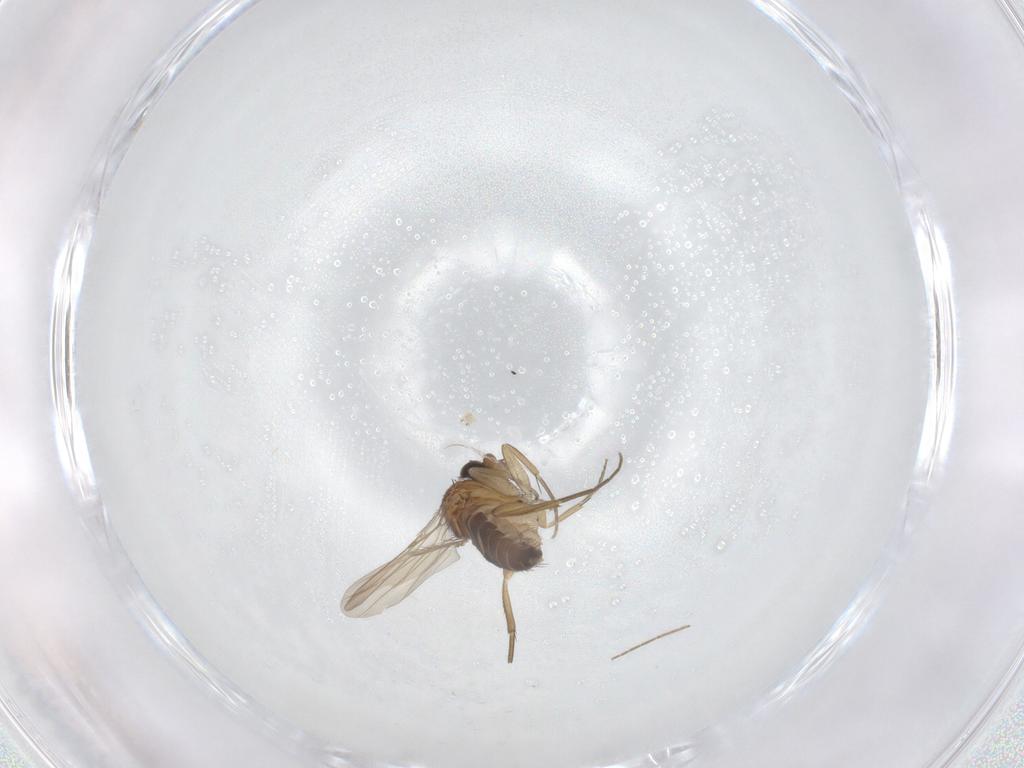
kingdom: Animalia
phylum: Arthropoda
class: Insecta
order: Diptera
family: Phoridae
